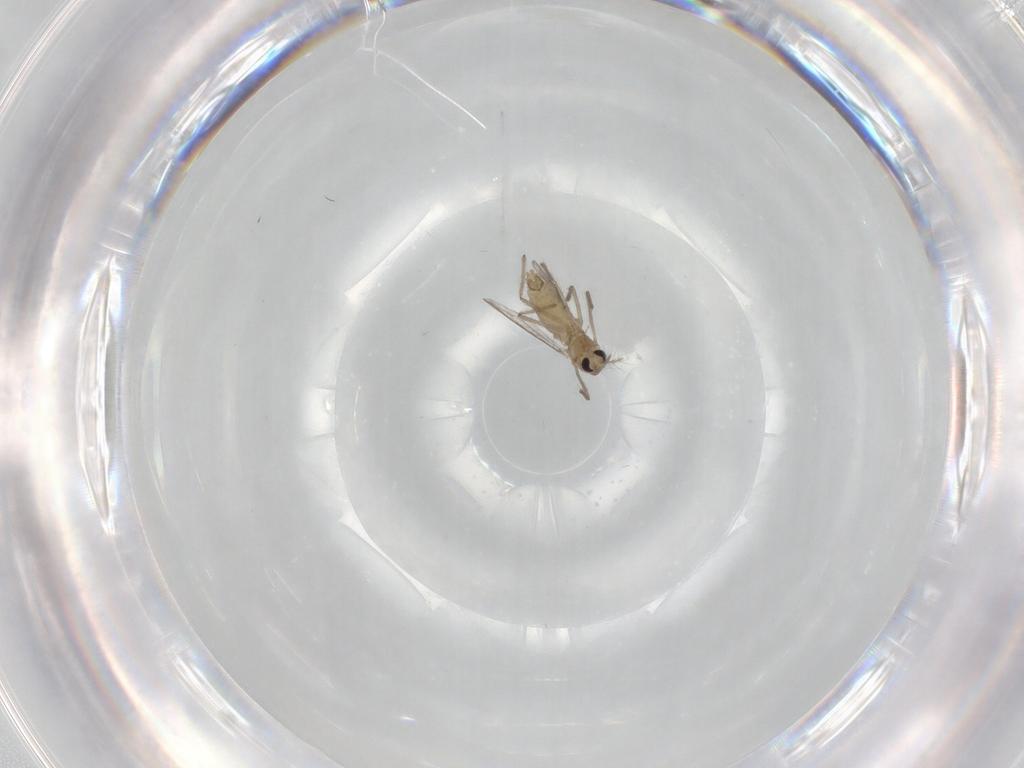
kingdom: Animalia
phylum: Arthropoda
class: Insecta
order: Diptera
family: Chironomidae
